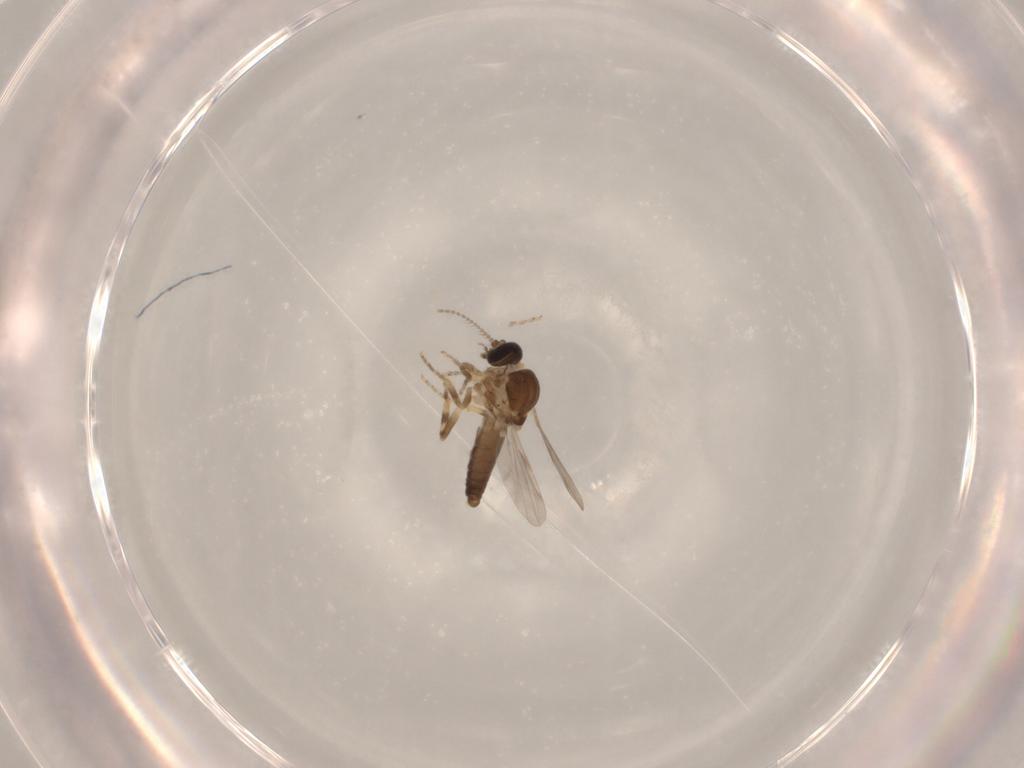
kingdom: Animalia
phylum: Arthropoda
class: Insecta
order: Diptera
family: Ceratopogonidae
